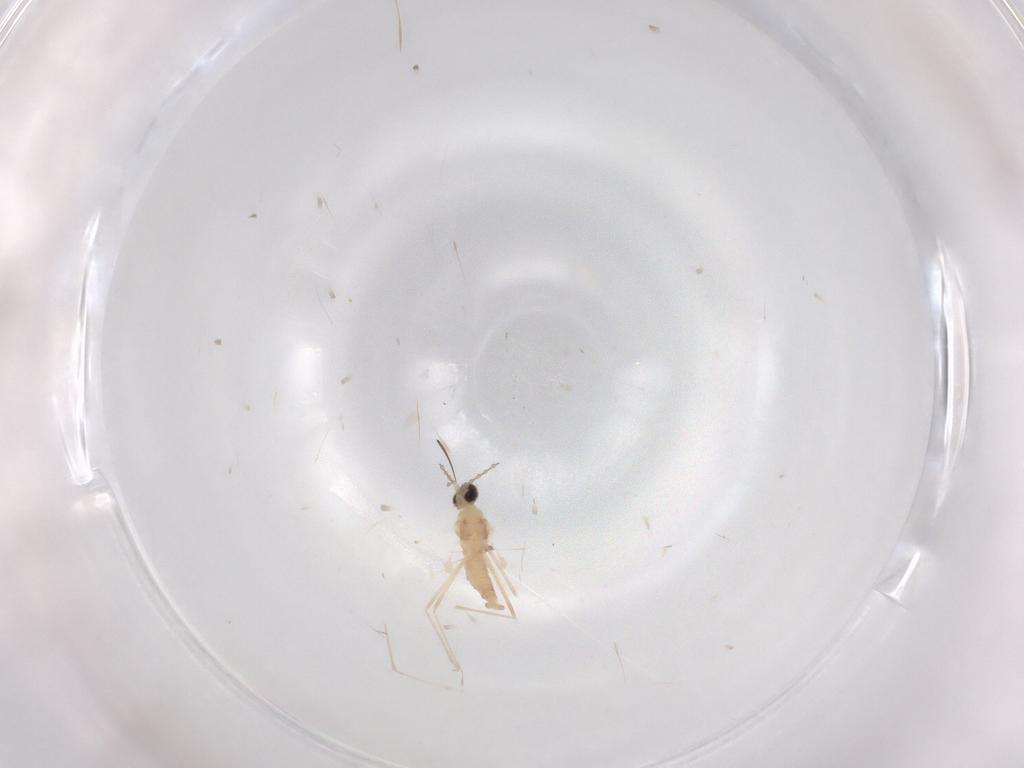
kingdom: Animalia
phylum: Arthropoda
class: Insecta
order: Diptera
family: Cecidomyiidae
